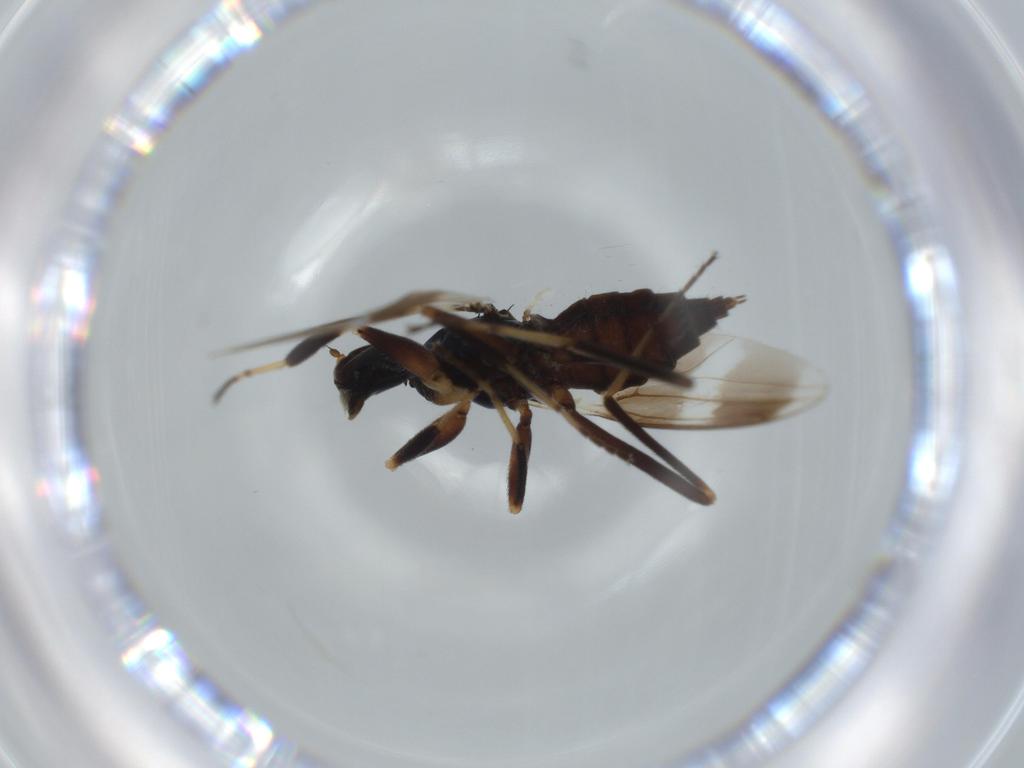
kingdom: Animalia
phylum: Arthropoda
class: Insecta
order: Diptera
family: Hybotidae
